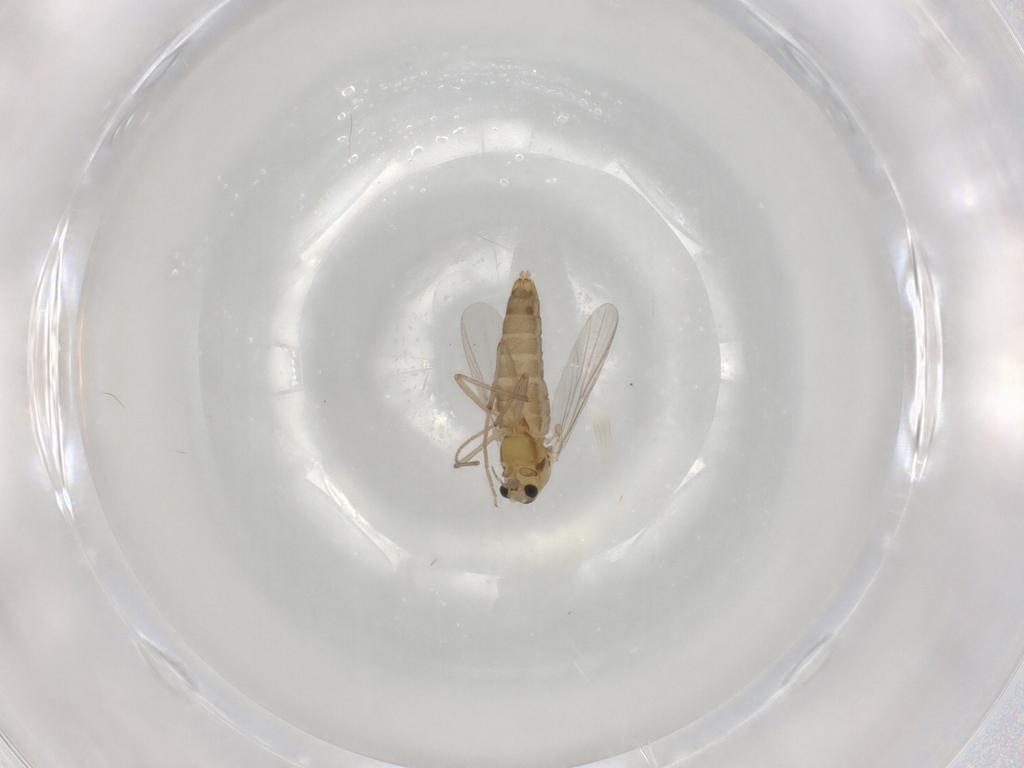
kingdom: Animalia
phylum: Arthropoda
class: Insecta
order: Diptera
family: Chironomidae
